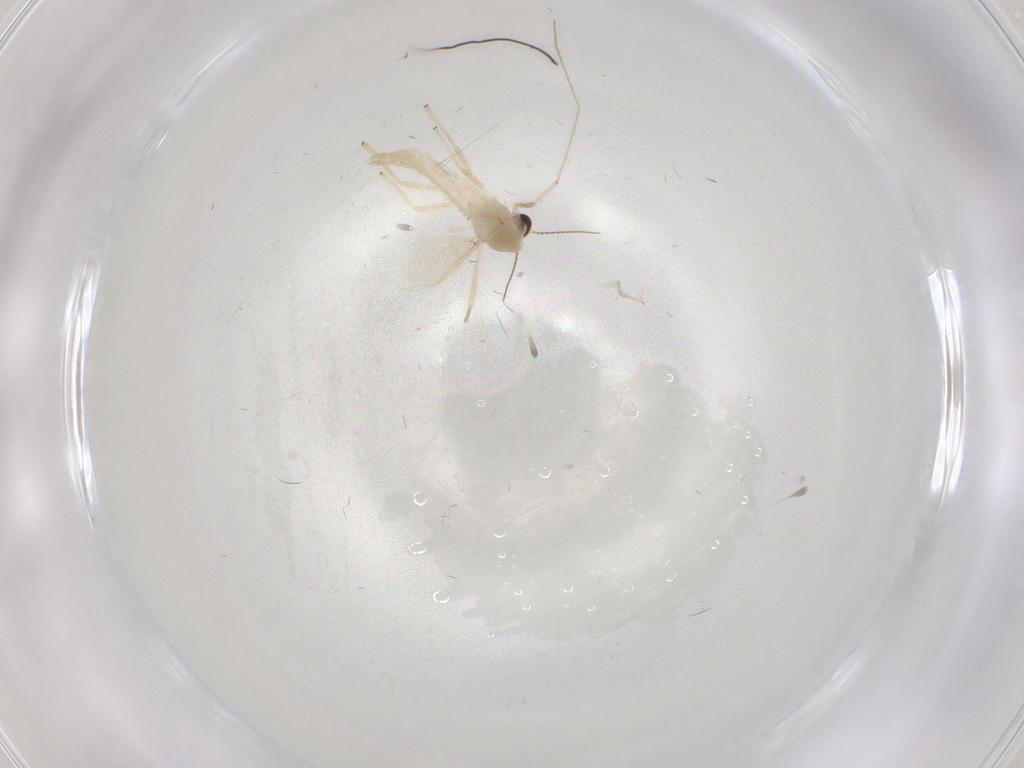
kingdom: Animalia
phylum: Arthropoda
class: Insecta
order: Diptera
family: Chironomidae
